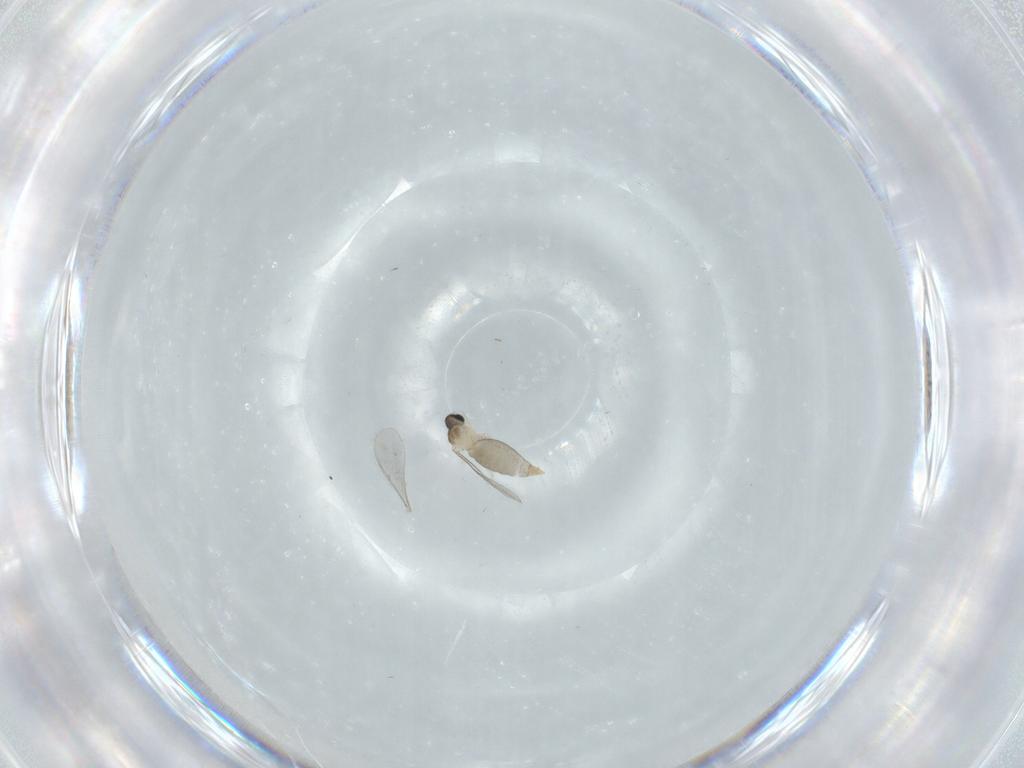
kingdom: Animalia
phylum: Arthropoda
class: Insecta
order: Diptera
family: Cecidomyiidae
